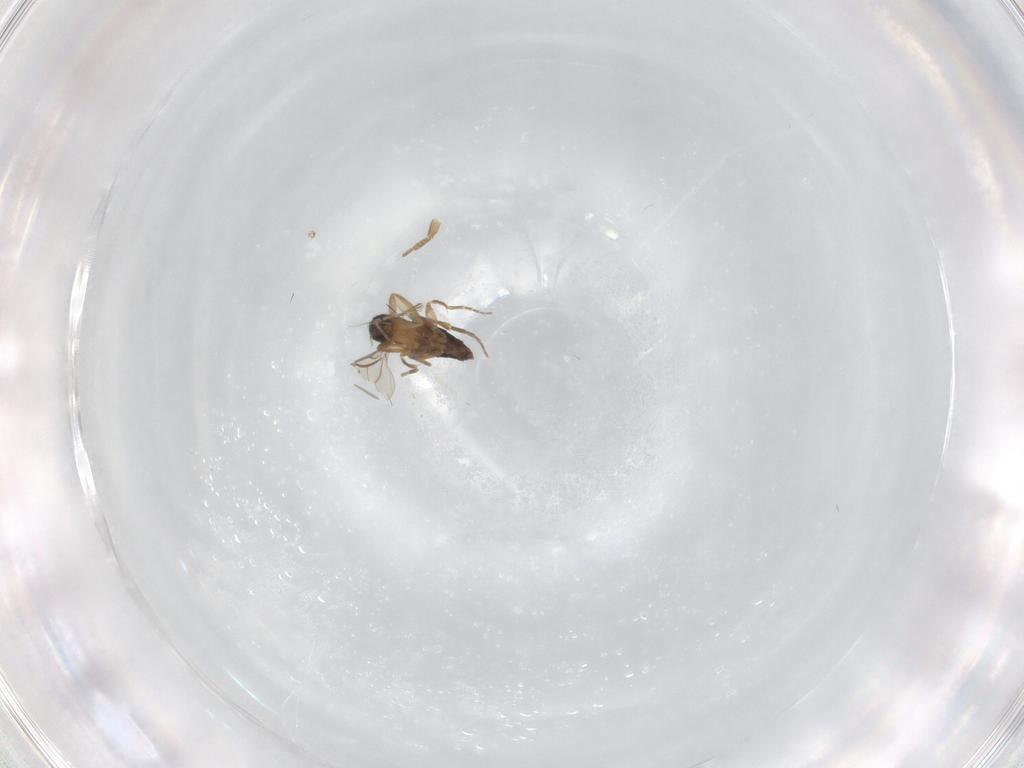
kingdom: Animalia
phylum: Arthropoda
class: Insecta
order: Diptera
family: Phoridae
